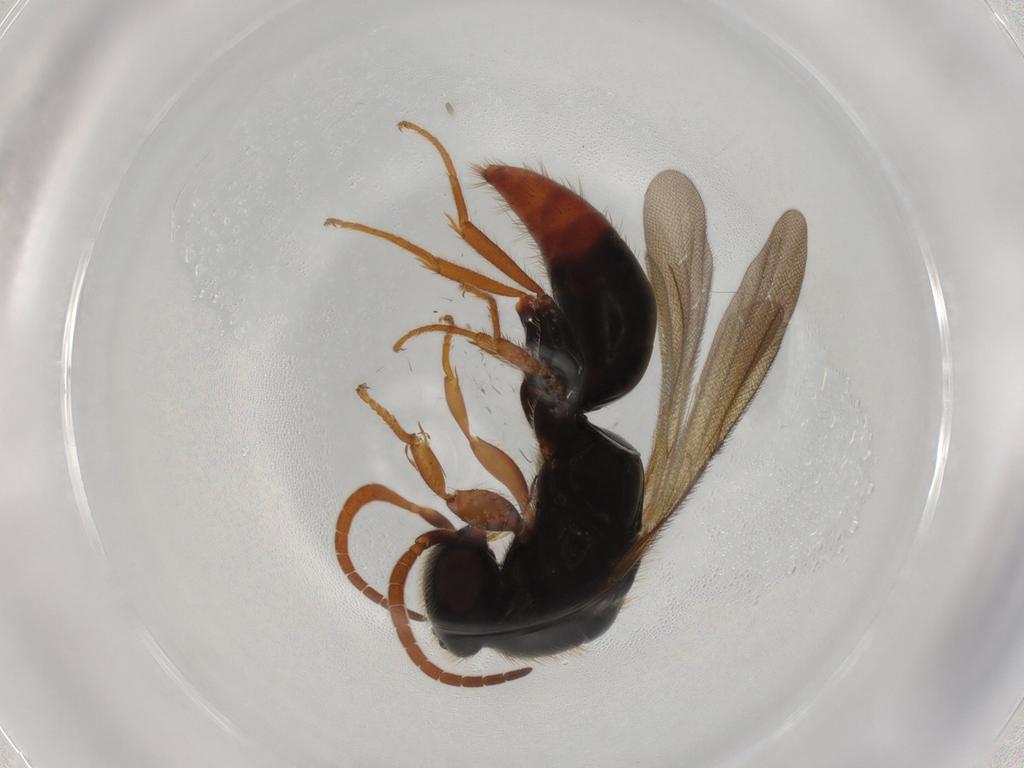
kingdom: Animalia
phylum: Arthropoda
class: Insecta
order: Hymenoptera
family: Bethylidae
